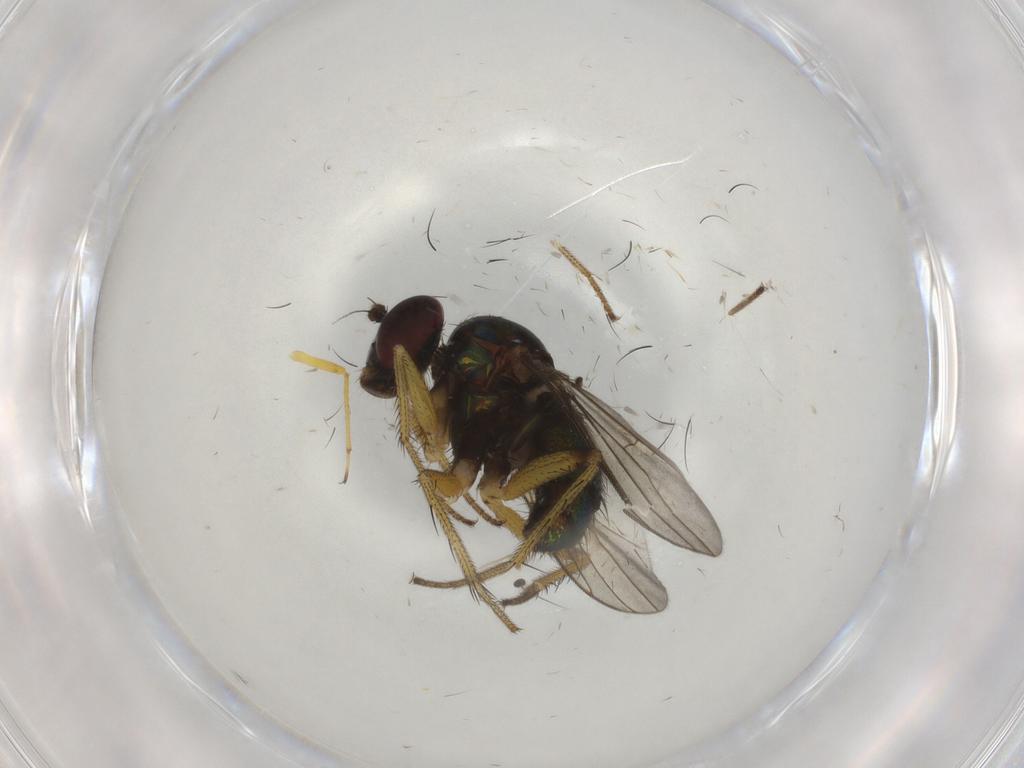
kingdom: Animalia
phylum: Arthropoda
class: Insecta
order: Diptera
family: Dolichopodidae
